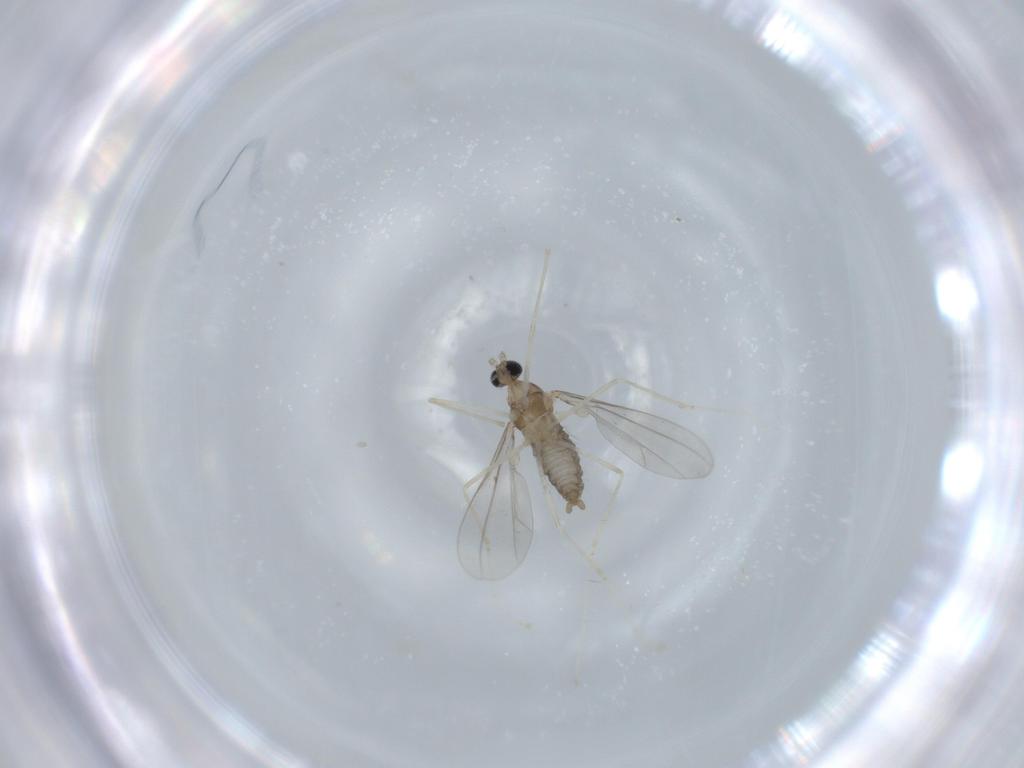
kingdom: Animalia
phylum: Arthropoda
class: Insecta
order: Diptera
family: Cecidomyiidae
